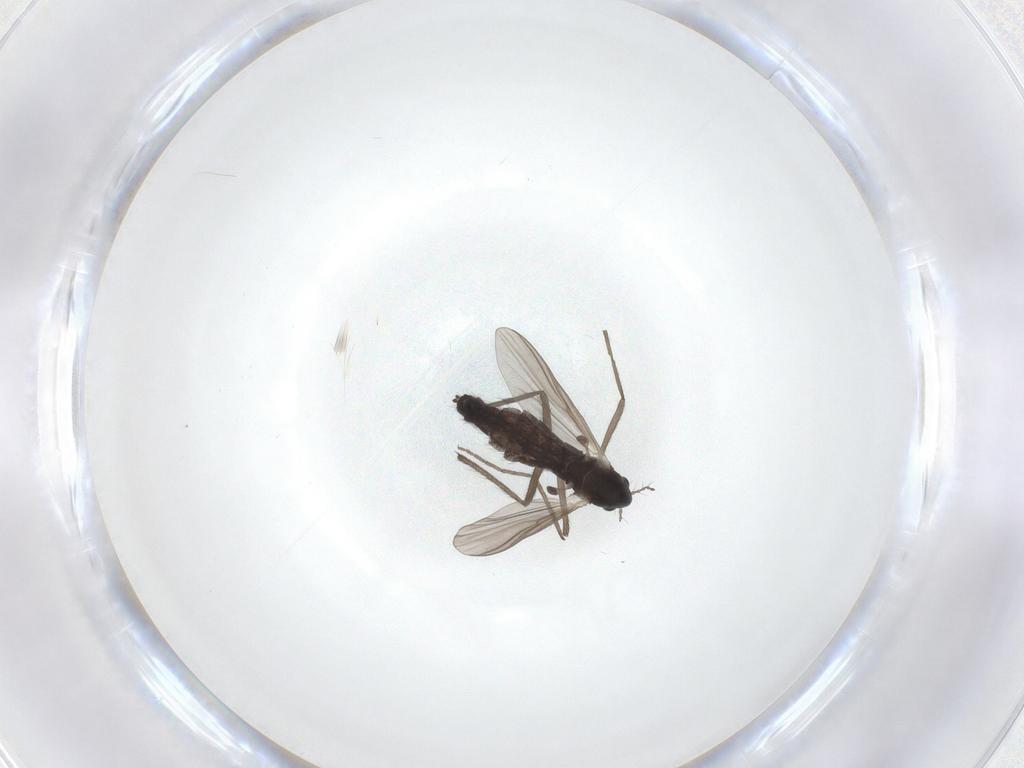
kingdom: Animalia
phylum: Arthropoda
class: Insecta
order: Diptera
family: Chironomidae
